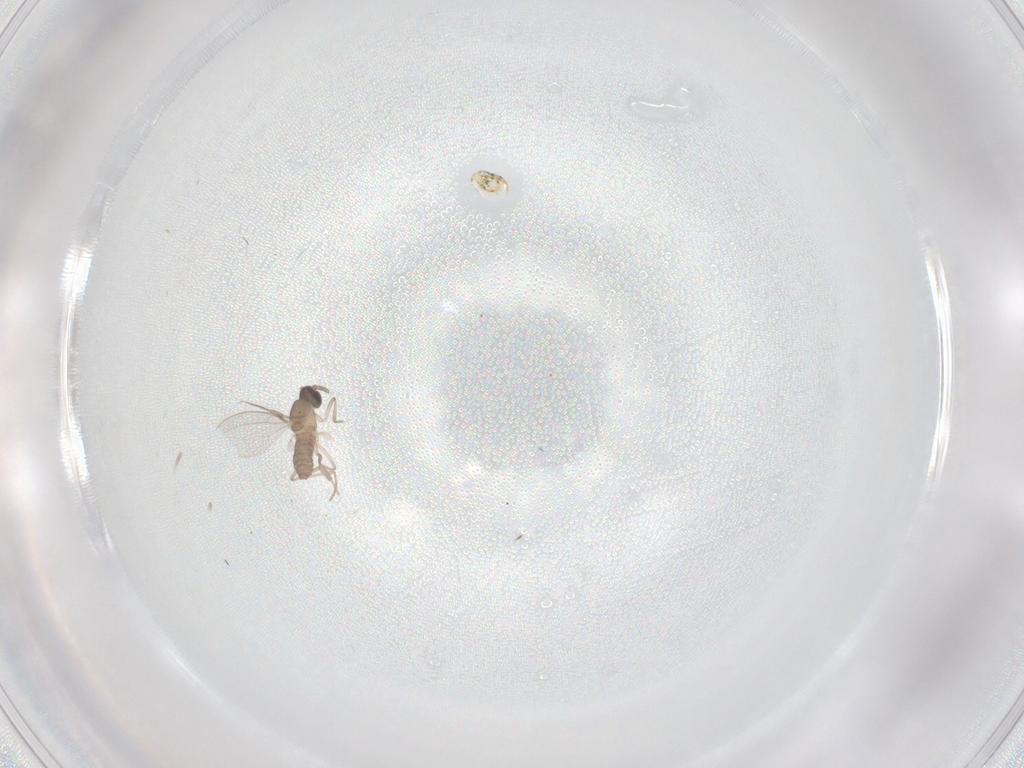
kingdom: Animalia
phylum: Arthropoda
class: Insecta
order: Diptera
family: Cecidomyiidae
